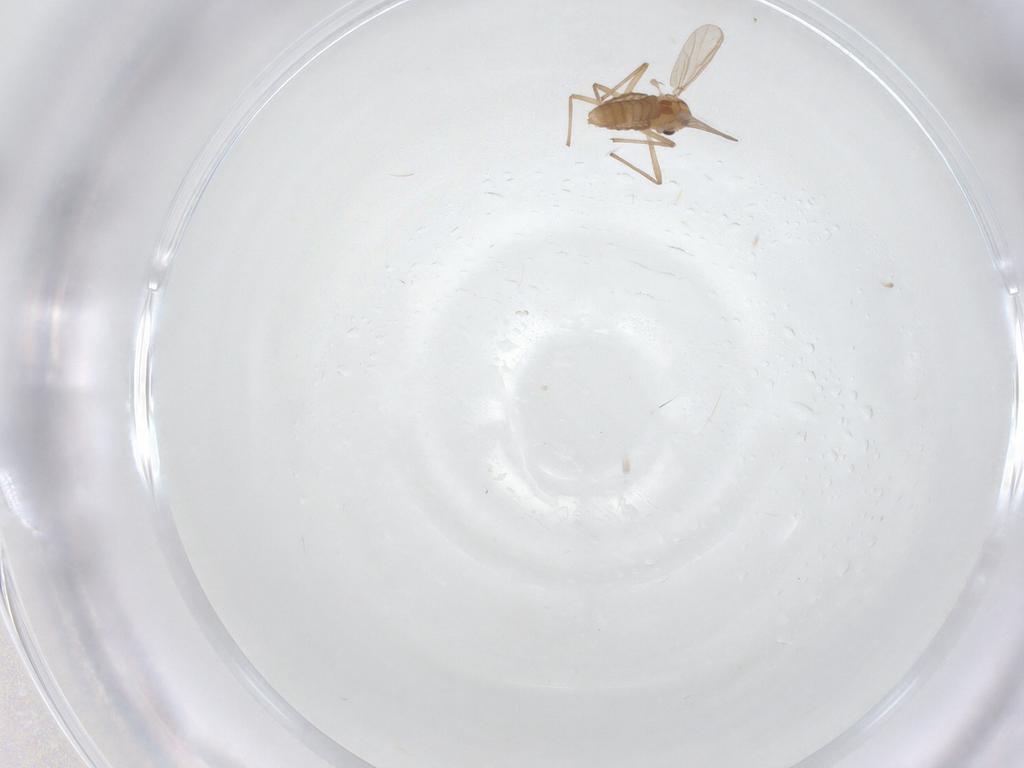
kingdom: Animalia
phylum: Arthropoda
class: Insecta
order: Diptera
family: Chironomidae
